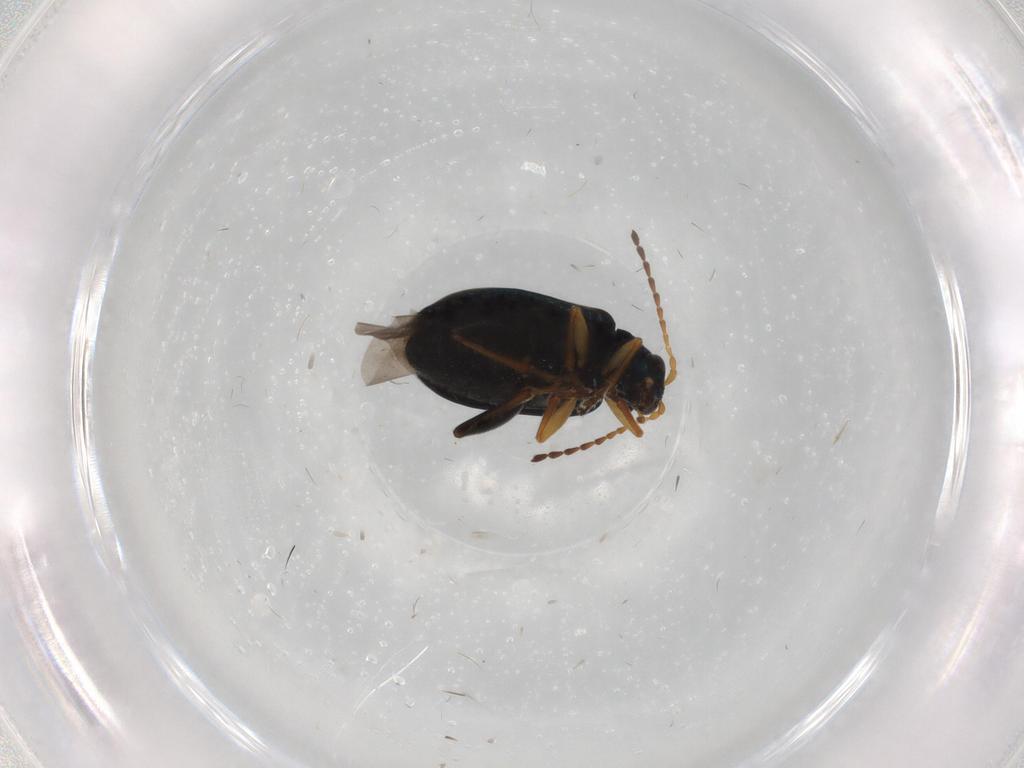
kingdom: Animalia
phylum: Arthropoda
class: Insecta
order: Coleoptera
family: Chrysomelidae
